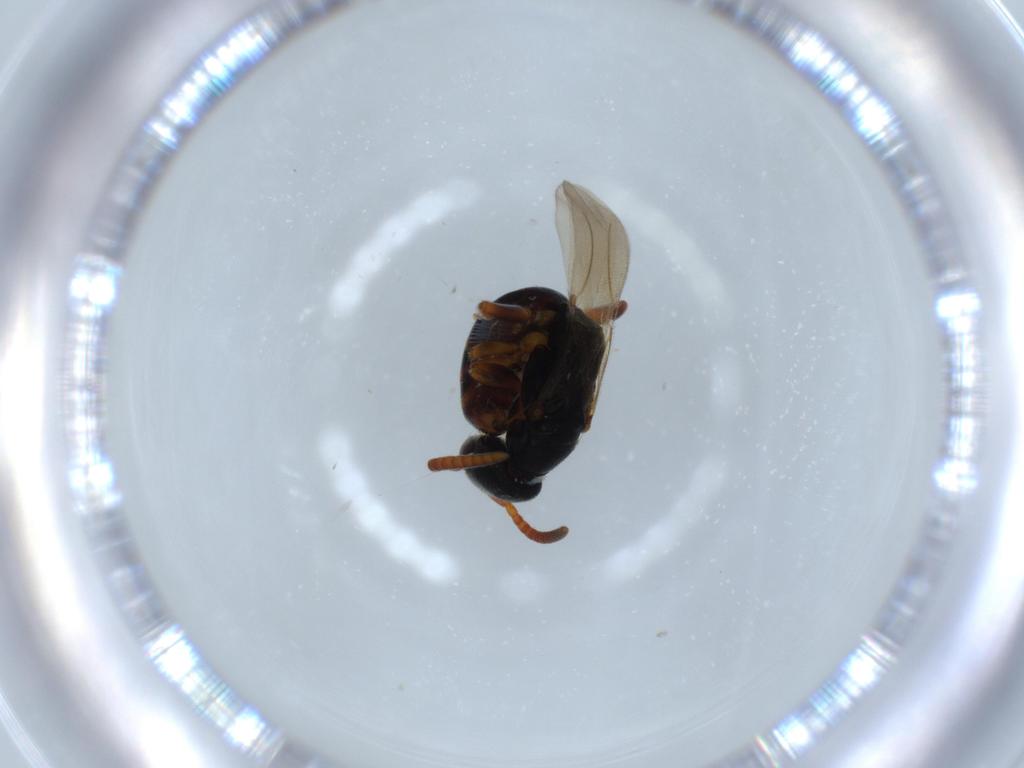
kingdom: Animalia
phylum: Arthropoda
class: Insecta
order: Hymenoptera
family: Bethylidae
